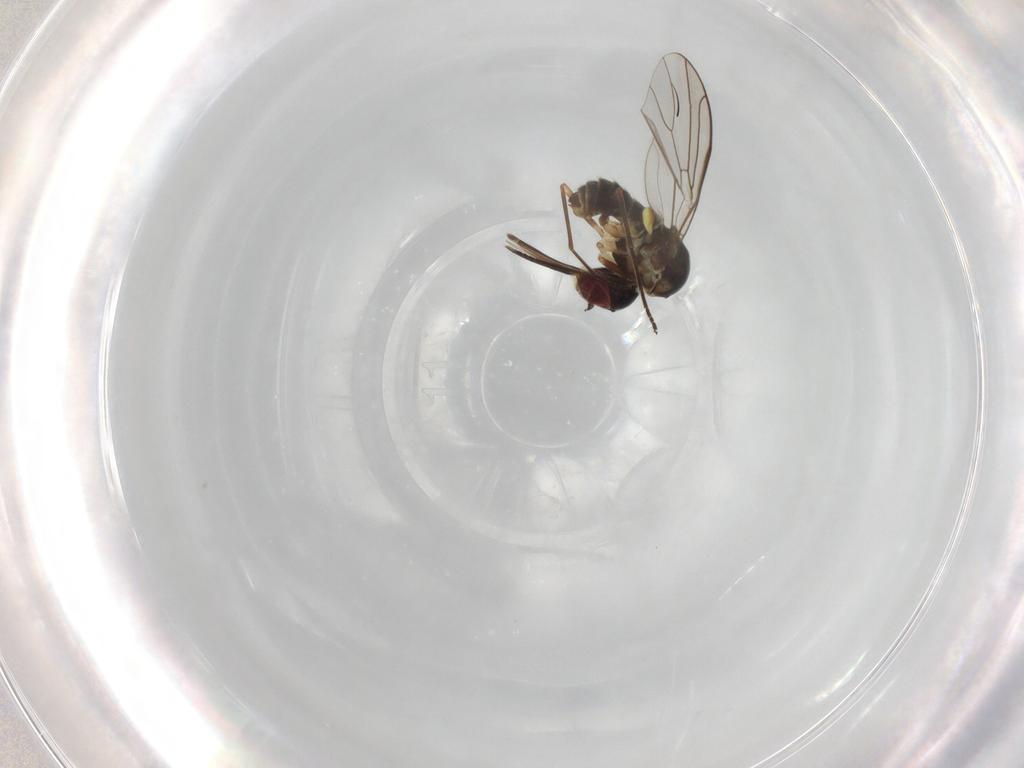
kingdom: Animalia
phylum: Arthropoda
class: Insecta
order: Diptera
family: Bombyliidae
